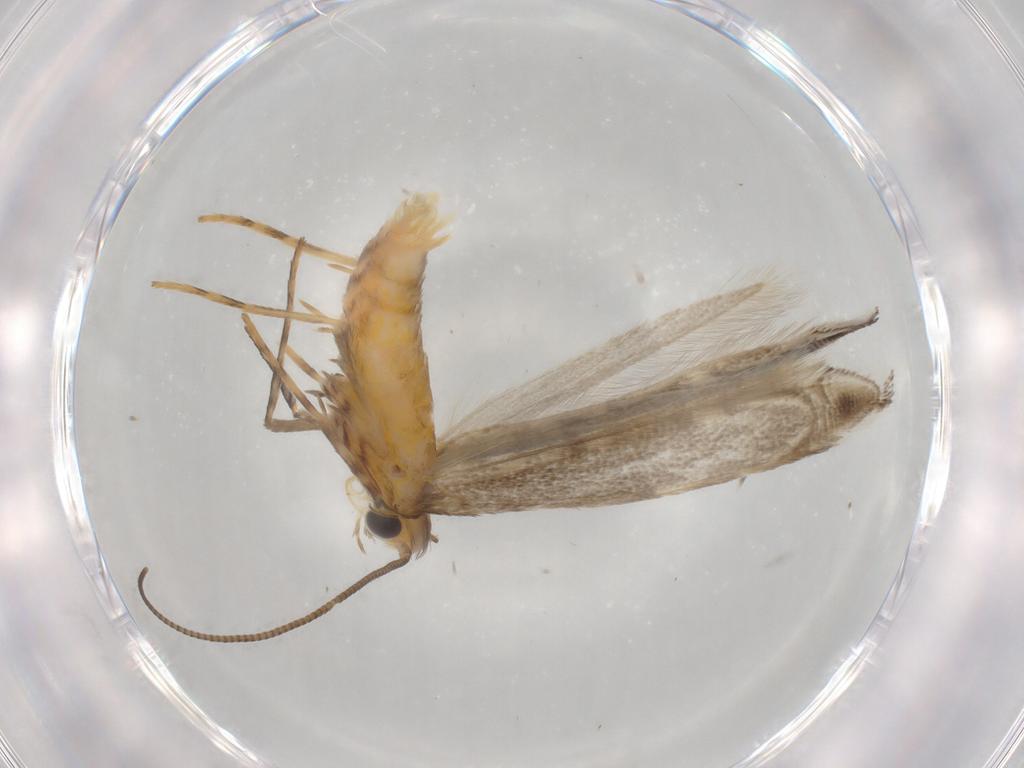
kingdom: Animalia
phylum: Arthropoda
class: Insecta
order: Lepidoptera
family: Gracillariidae
